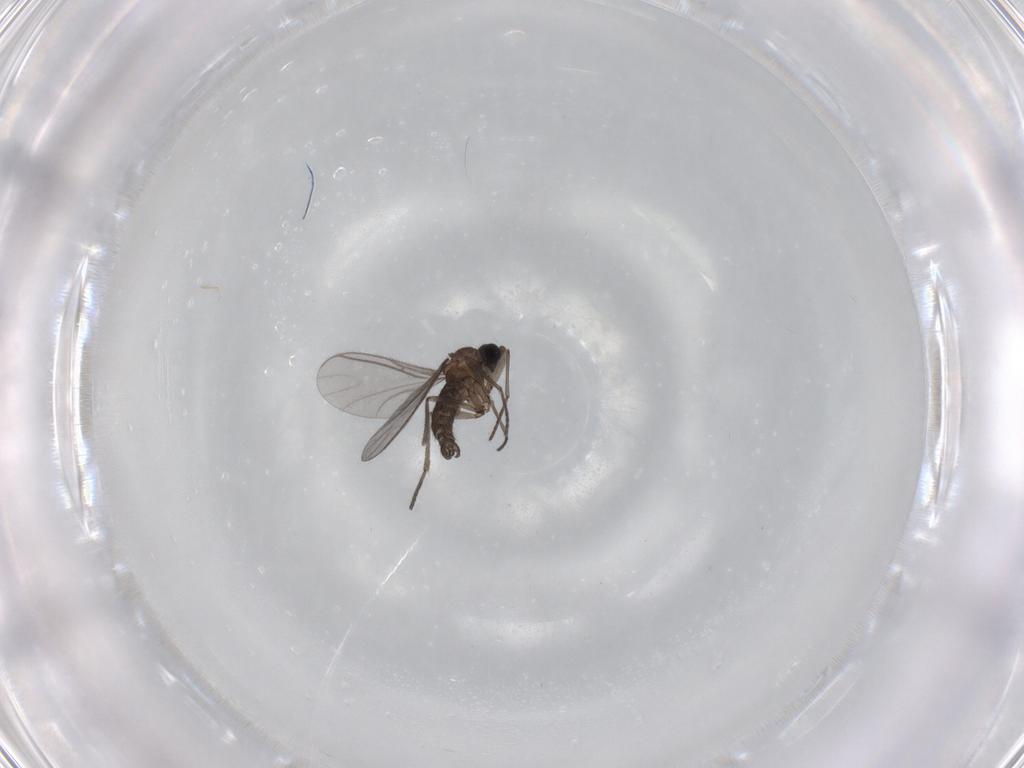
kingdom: Animalia
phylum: Arthropoda
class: Insecta
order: Diptera
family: Sciaridae
